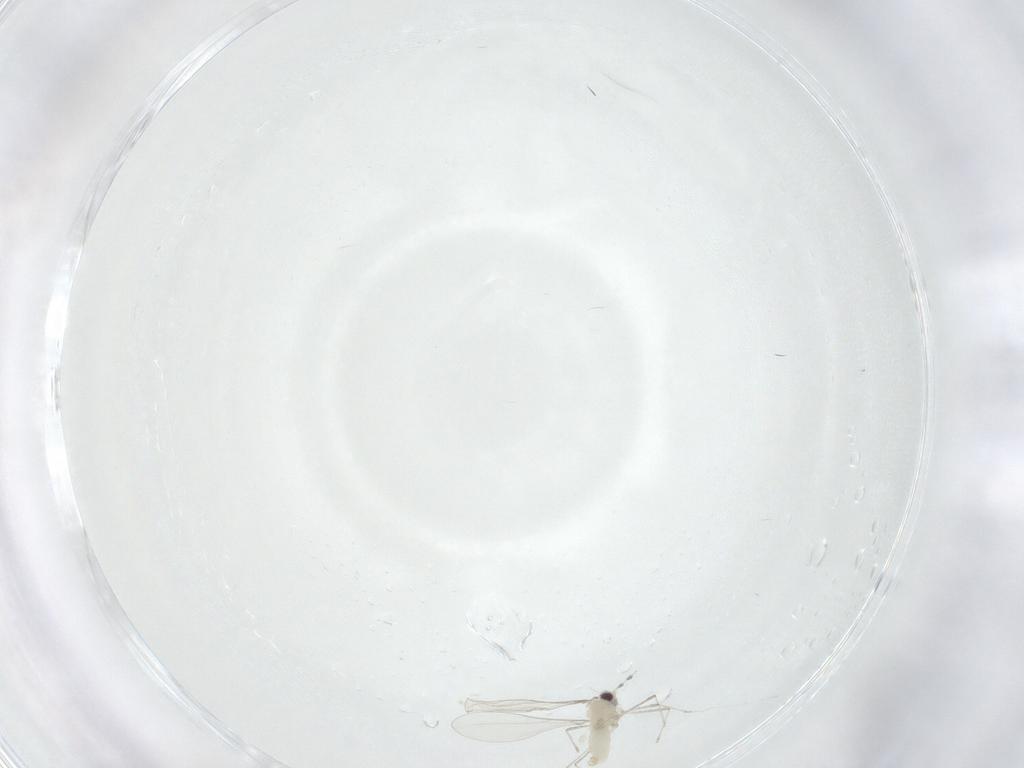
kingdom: Animalia
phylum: Arthropoda
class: Insecta
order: Diptera
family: Cecidomyiidae
